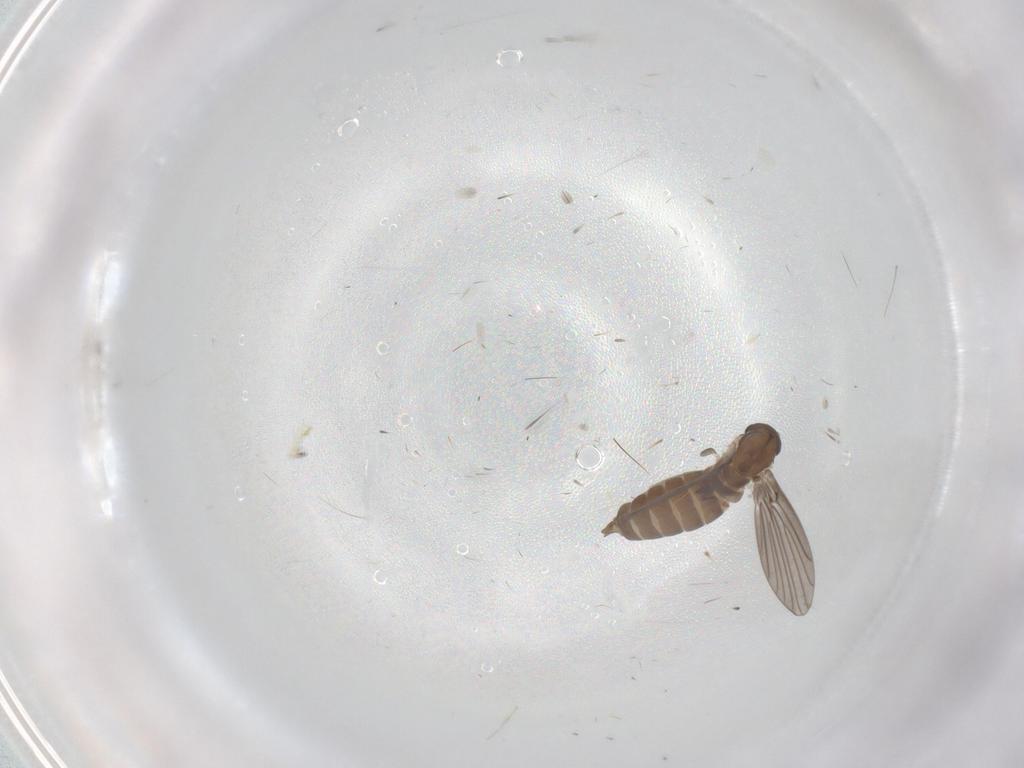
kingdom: Animalia
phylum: Arthropoda
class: Insecta
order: Diptera
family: Psychodidae
